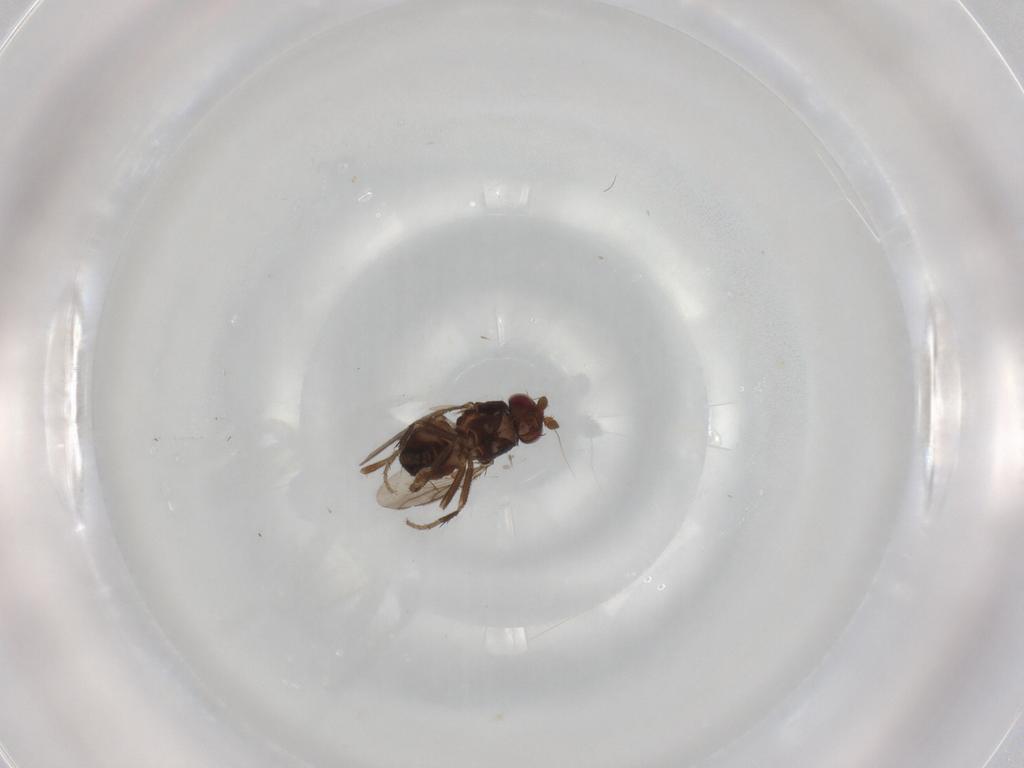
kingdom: Animalia
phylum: Arthropoda
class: Insecta
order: Diptera
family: Sphaeroceridae
